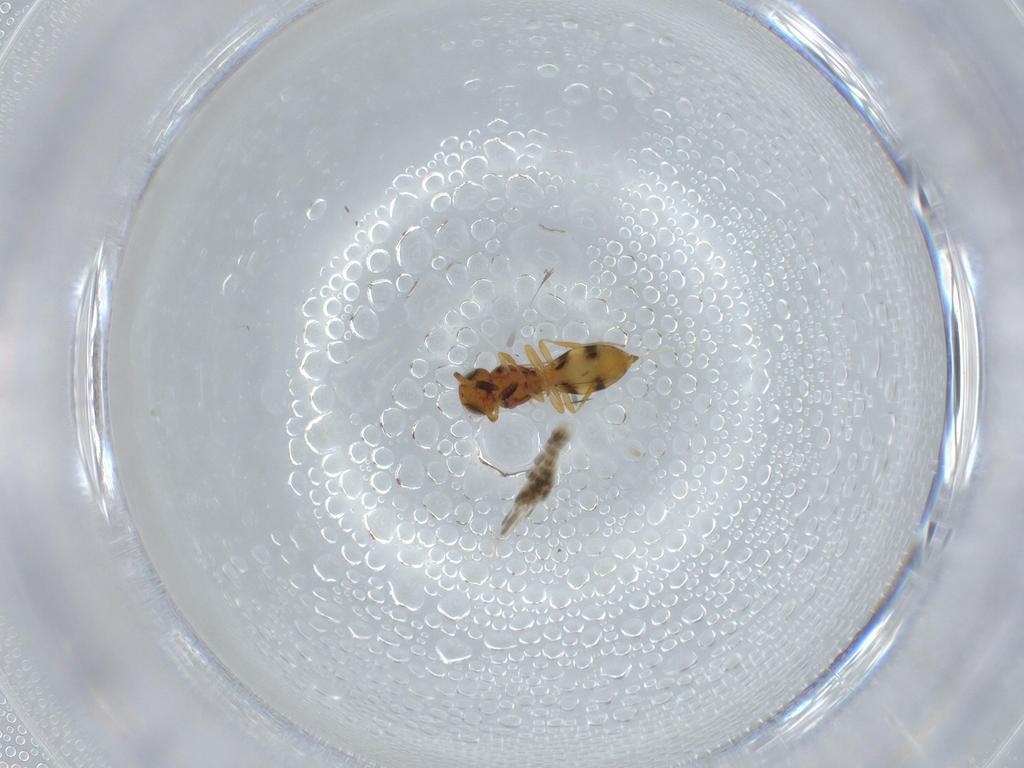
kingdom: Animalia
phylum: Arthropoda
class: Insecta
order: Hymenoptera
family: Scelionidae
